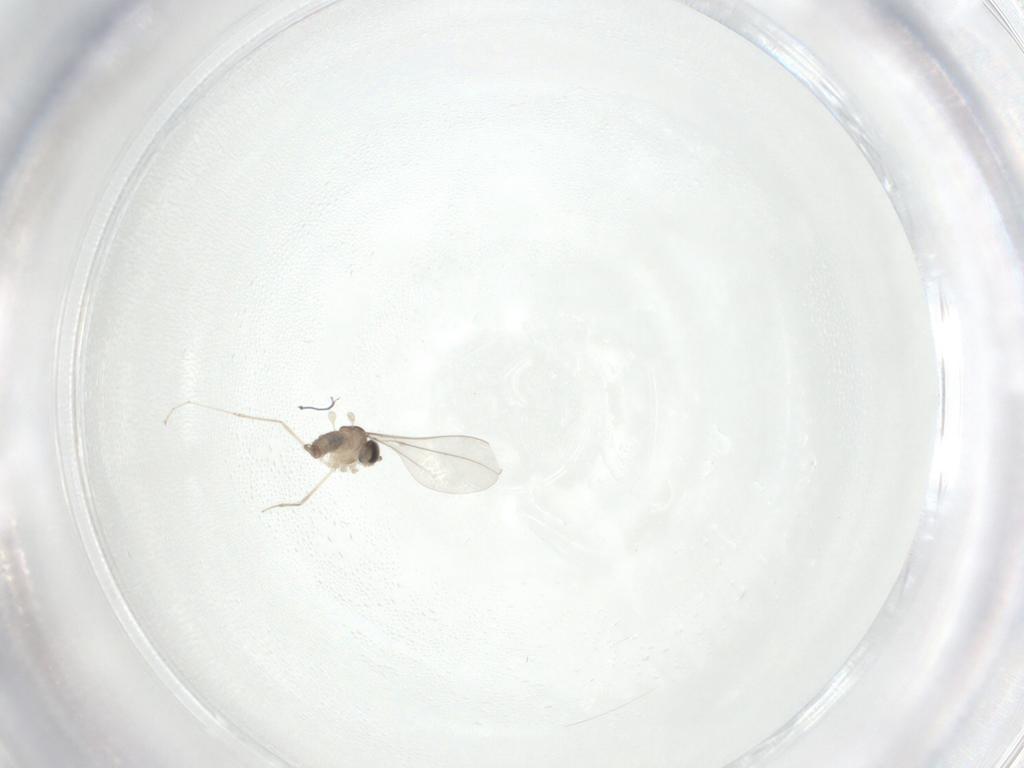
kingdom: Animalia
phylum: Arthropoda
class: Insecta
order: Diptera
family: Cecidomyiidae
